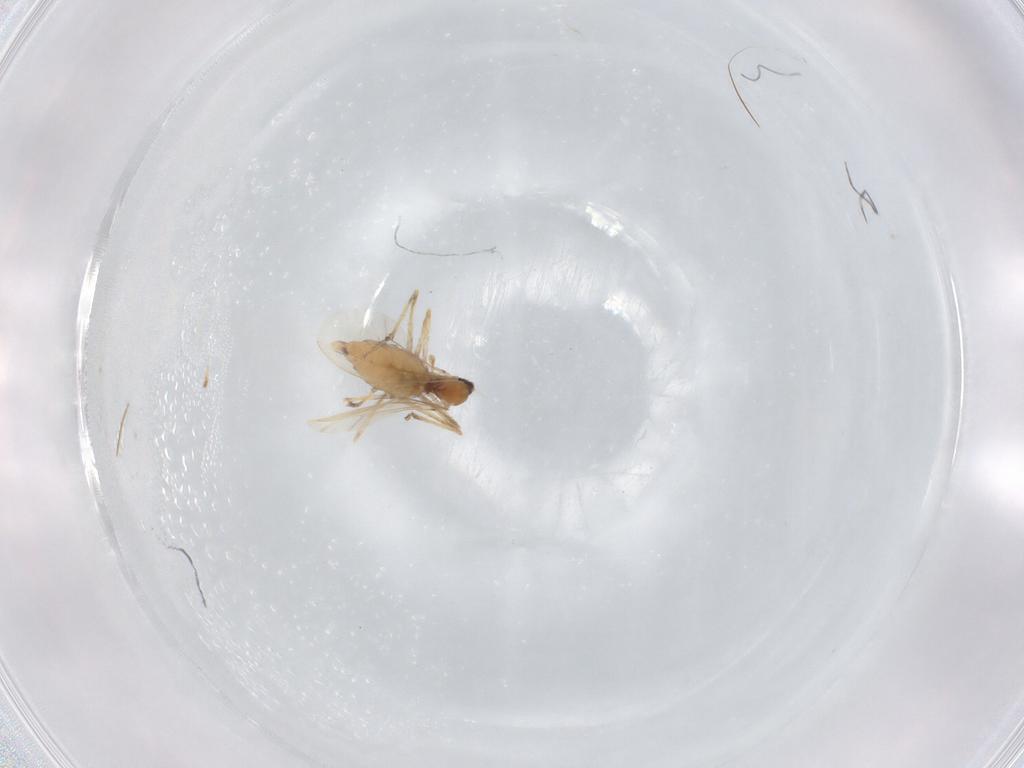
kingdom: Animalia
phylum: Arthropoda
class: Insecta
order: Diptera
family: Cecidomyiidae
